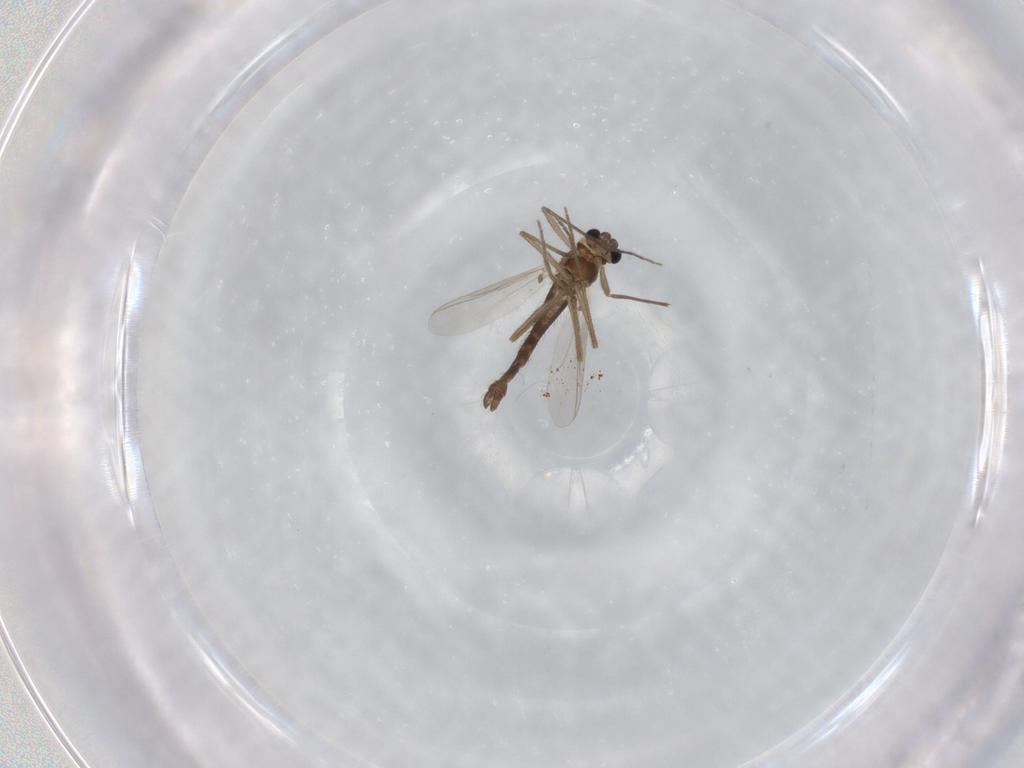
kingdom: Animalia
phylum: Arthropoda
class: Insecta
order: Diptera
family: Chironomidae
